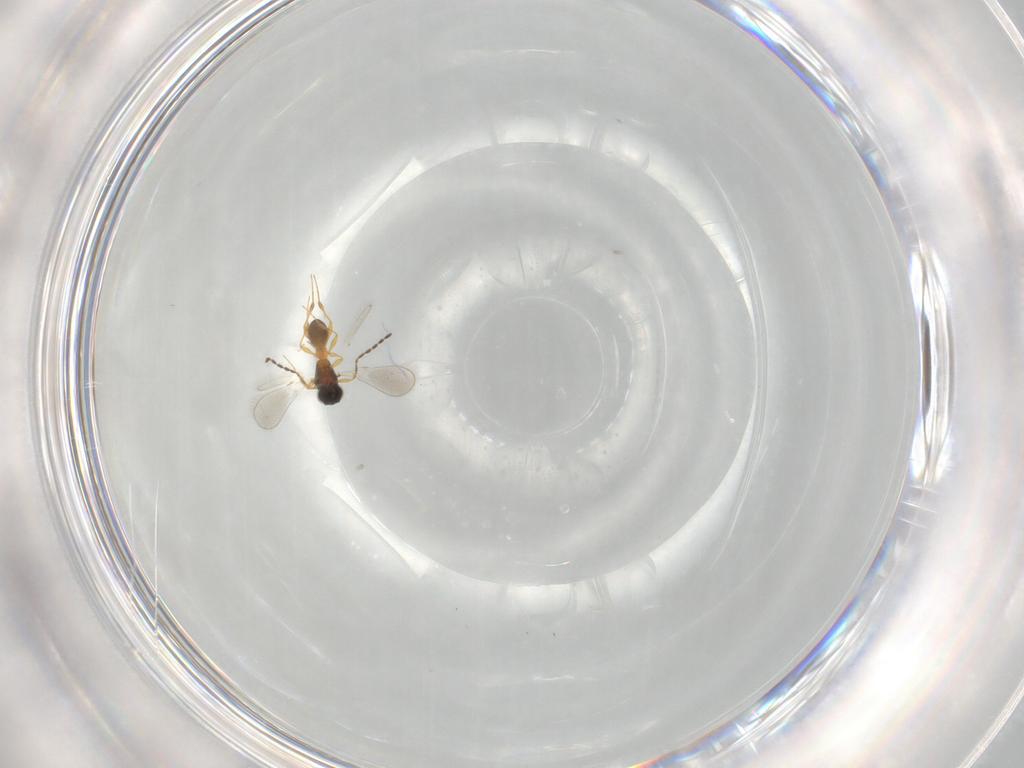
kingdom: Animalia
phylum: Arthropoda
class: Insecta
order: Hymenoptera
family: Platygastridae
